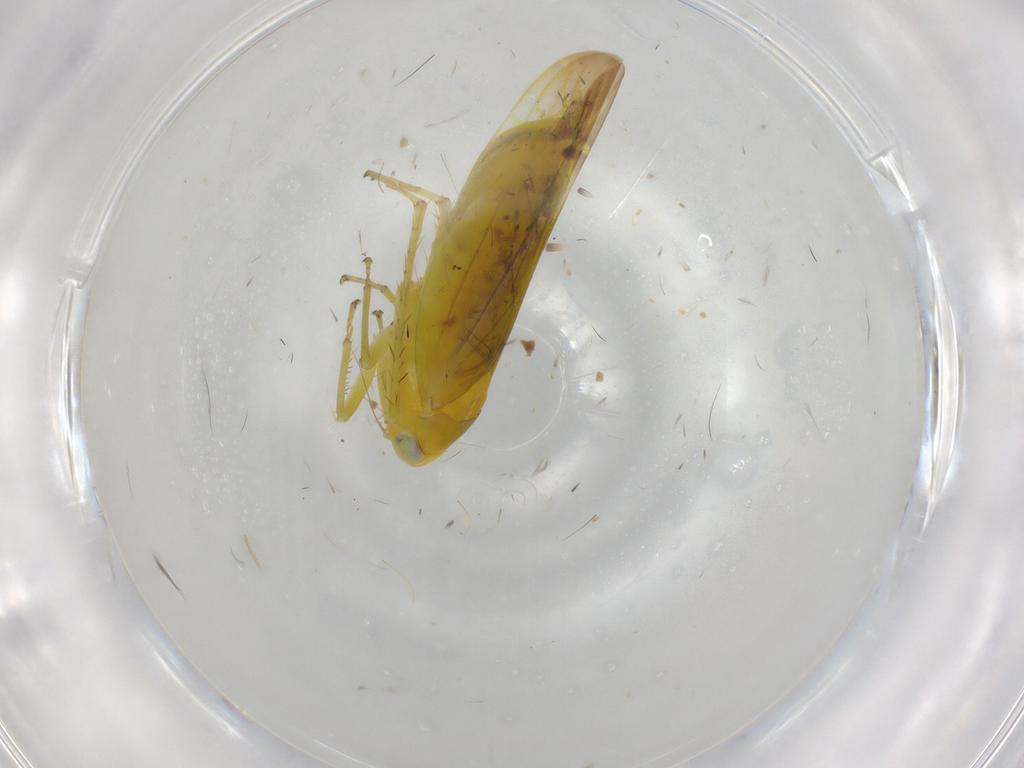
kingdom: Animalia
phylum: Arthropoda
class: Insecta
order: Hemiptera
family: Cicadellidae
